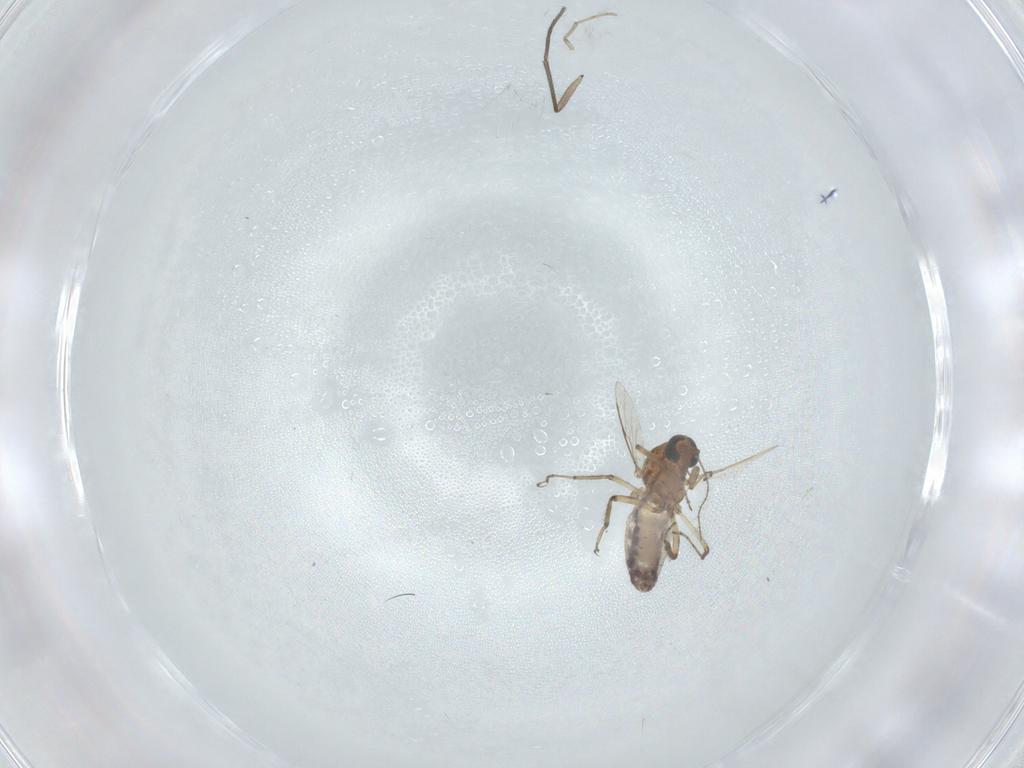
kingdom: Animalia
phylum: Arthropoda
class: Insecta
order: Diptera
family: Ceratopogonidae
